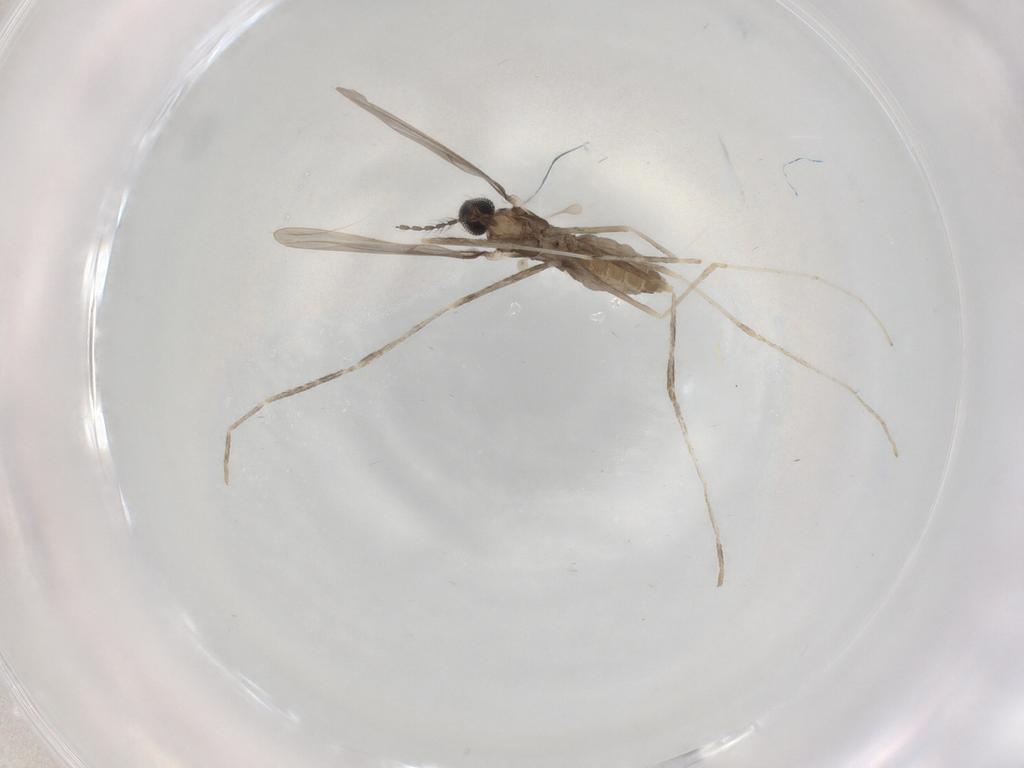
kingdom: Animalia
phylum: Arthropoda
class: Insecta
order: Diptera
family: Cecidomyiidae
